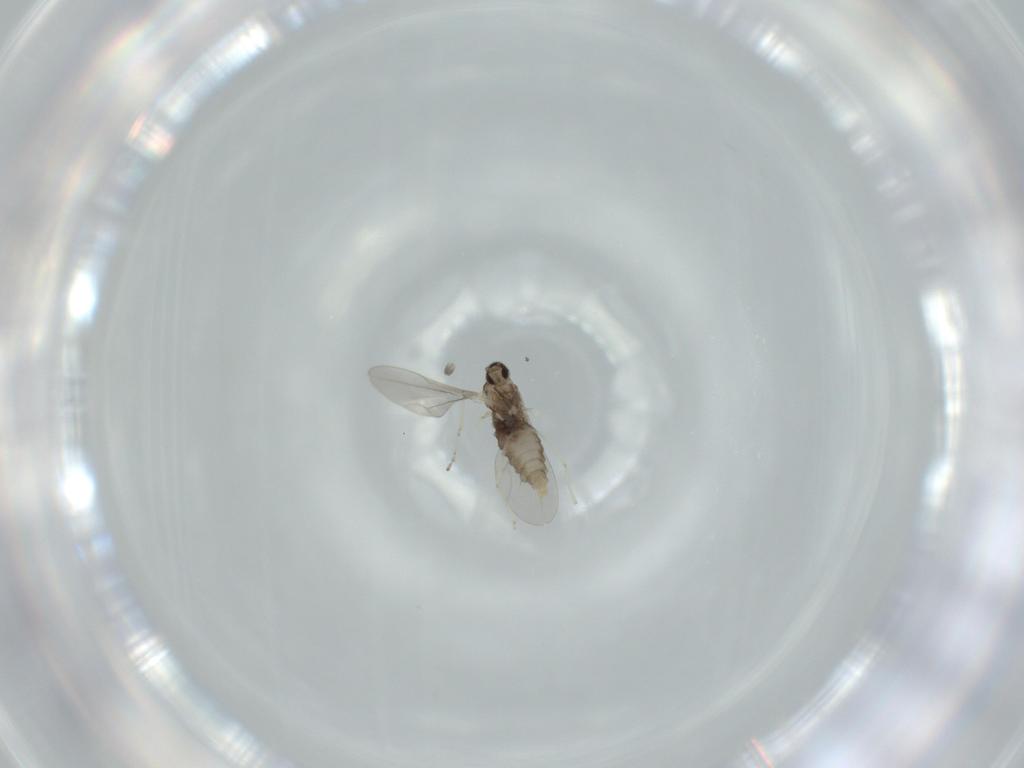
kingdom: Animalia
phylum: Arthropoda
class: Insecta
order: Diptera
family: Cecidomyiidae
